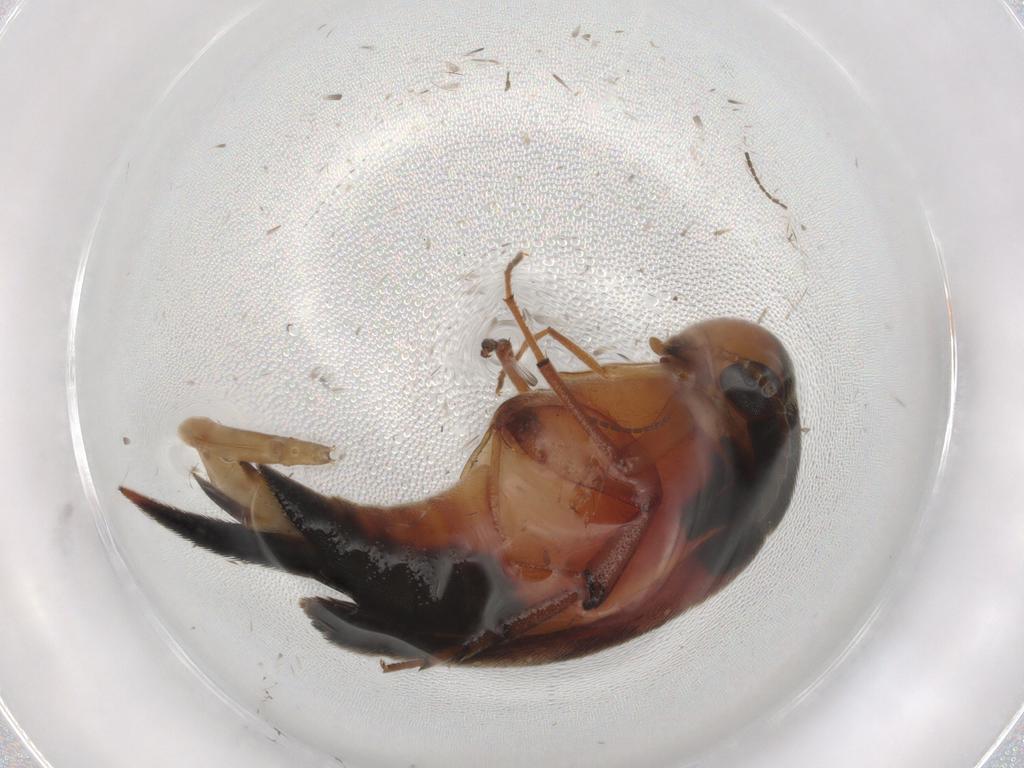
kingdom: Animalia
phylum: Arthropoda
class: Insecta
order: Coleoptera
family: Mordellidae
